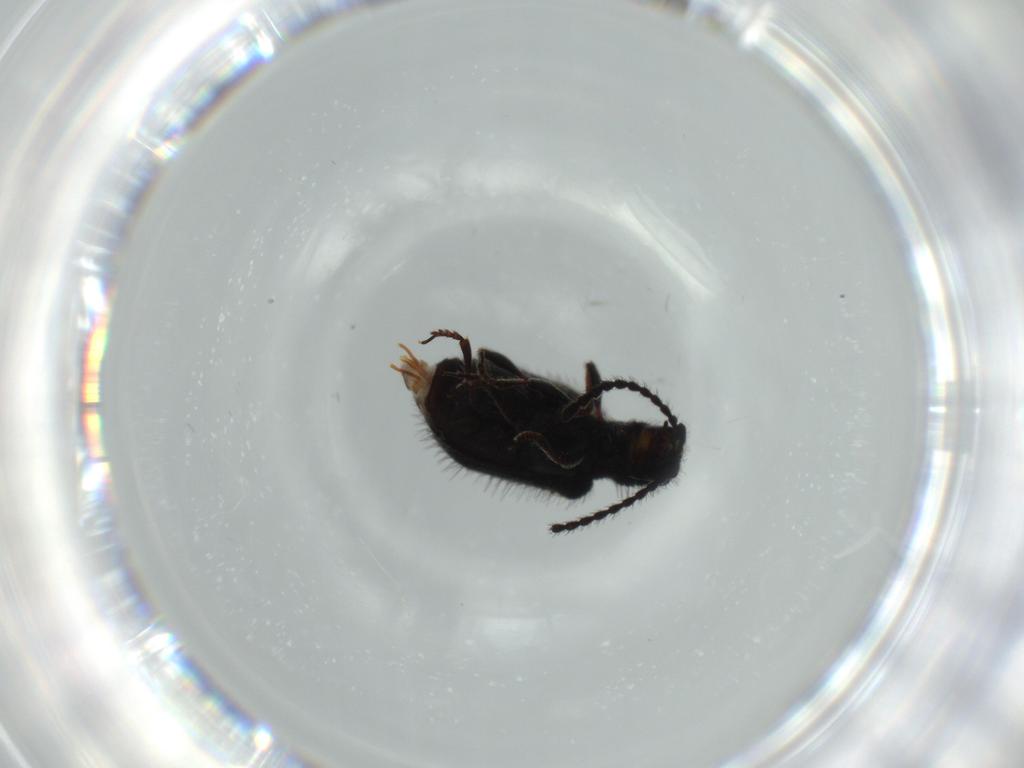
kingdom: Animalia
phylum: Arthropoda
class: Insecta
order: Coleoptera
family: Ptinidae
